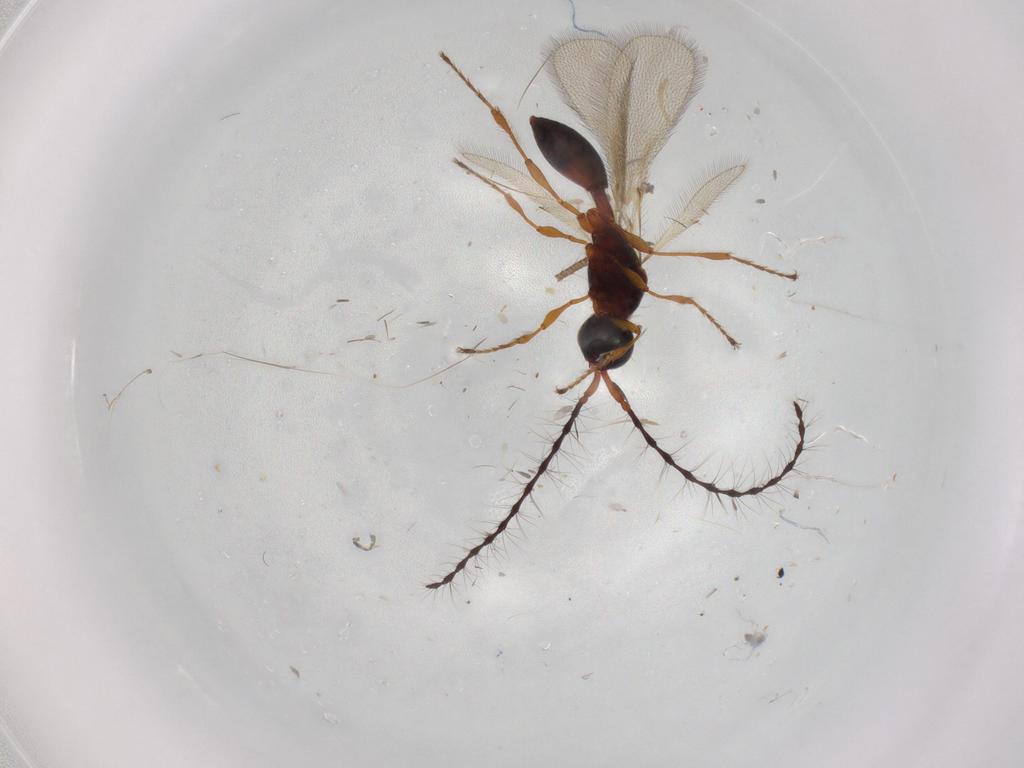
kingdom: Animalia
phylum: Arthropoda
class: Insecta
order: Hymenoptera
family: Diapriidae
